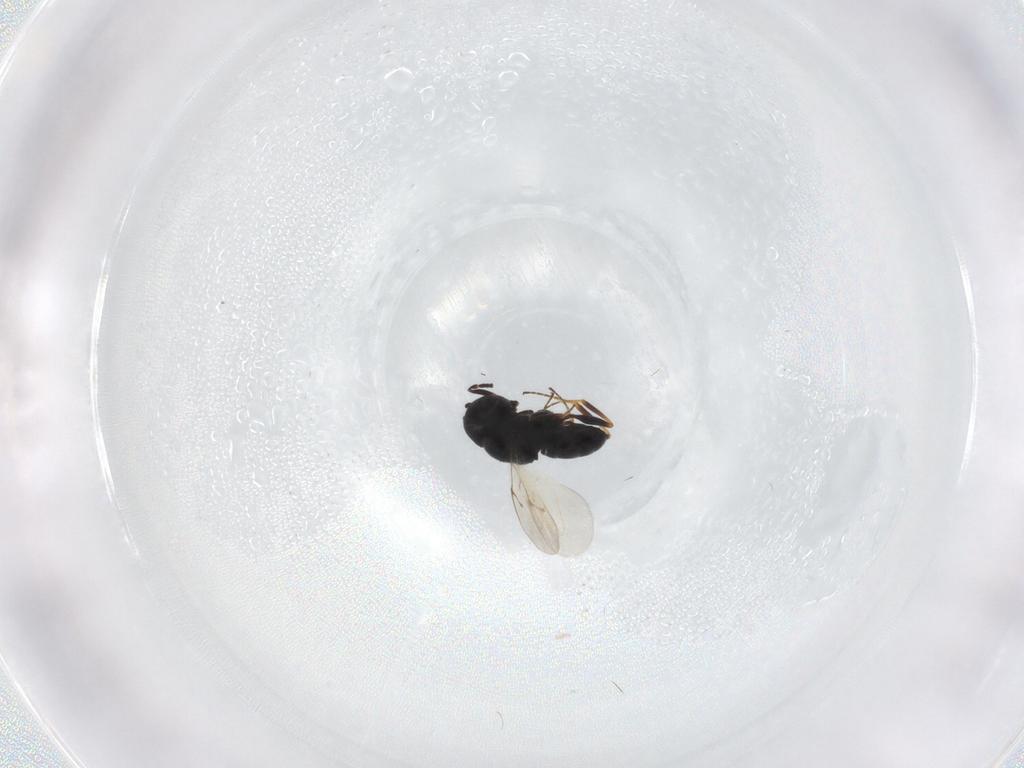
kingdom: Animalia
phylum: Arthropoda
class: Insecta
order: Hymenoptera
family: Scelionidae
